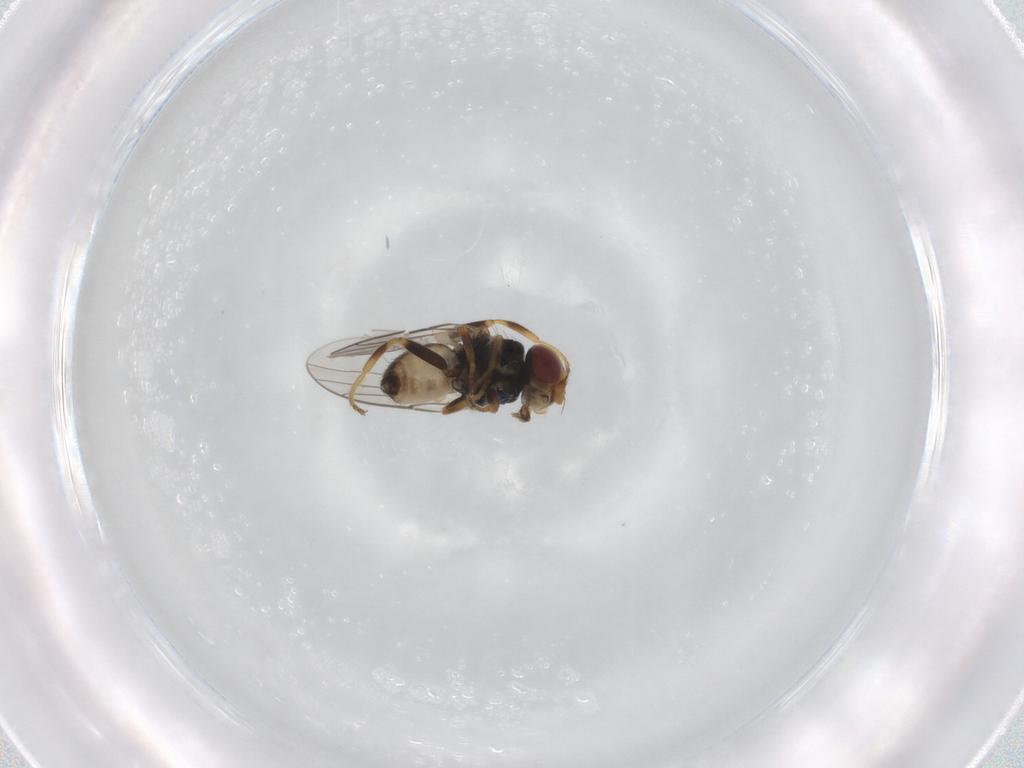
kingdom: Animalia
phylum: Arthropoda
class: Insecta
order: Diptera
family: Chloropidae
